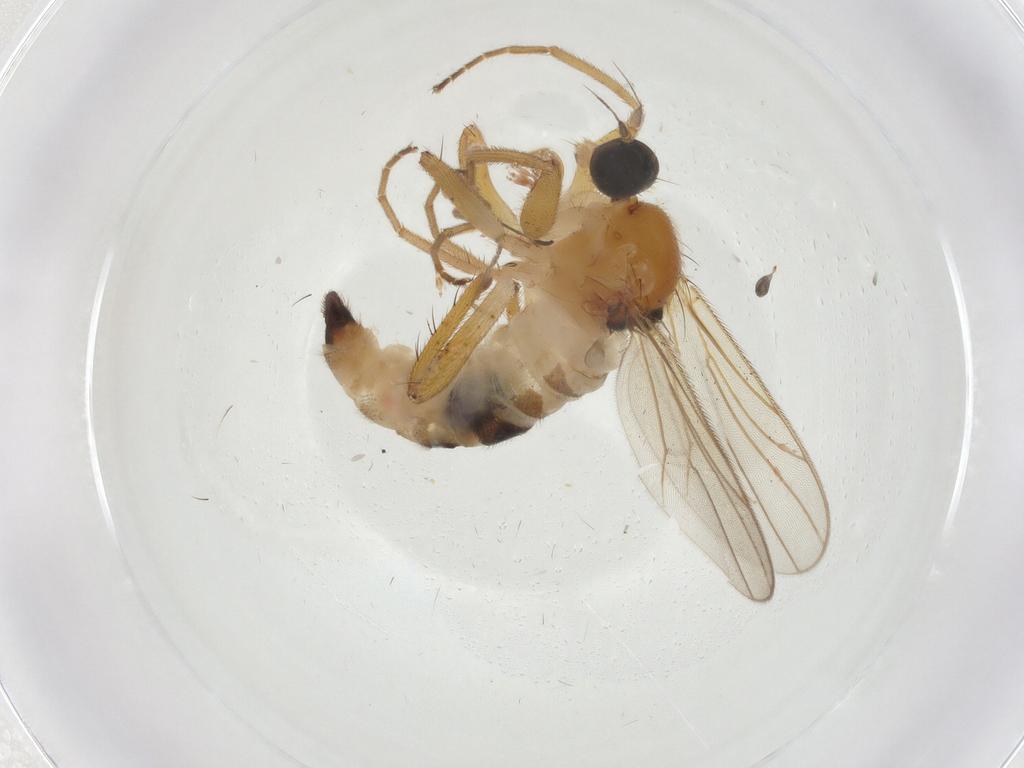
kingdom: Animalia
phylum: Arthropoda
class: Insecta
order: Diptera
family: Hybotidae
